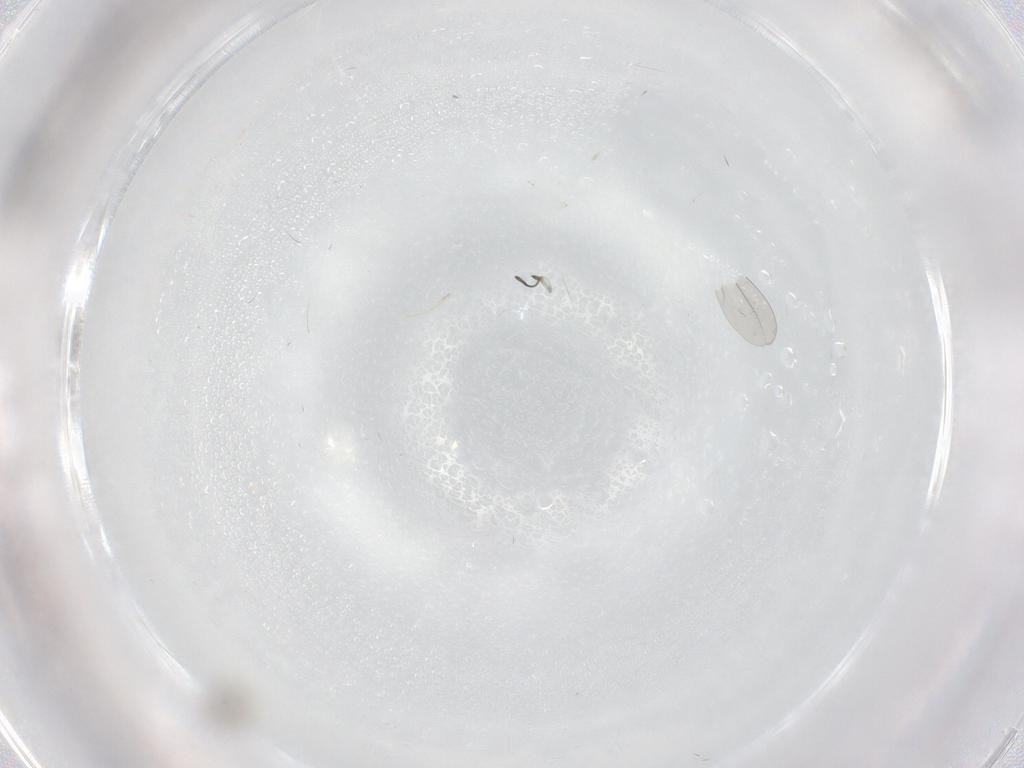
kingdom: Animalia
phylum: Arthropoda
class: Insecta
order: Diptera
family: Cecidomyiidae
